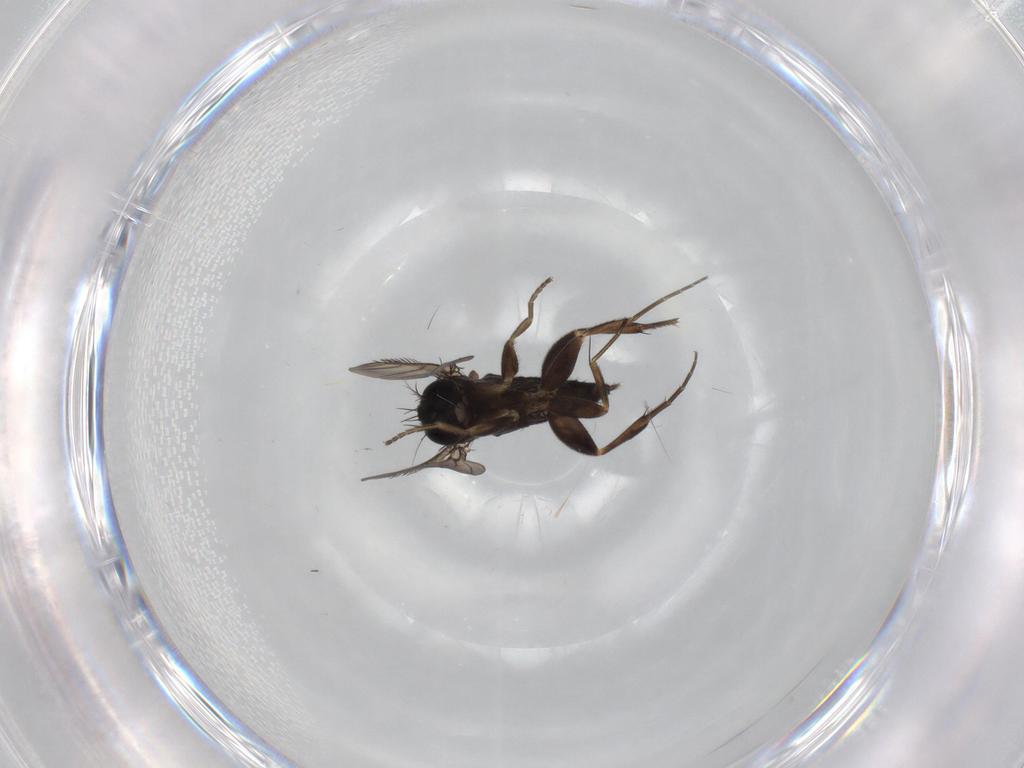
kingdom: Animalia
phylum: Arthropoda
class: Insecta
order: Diptera
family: Phoridae
